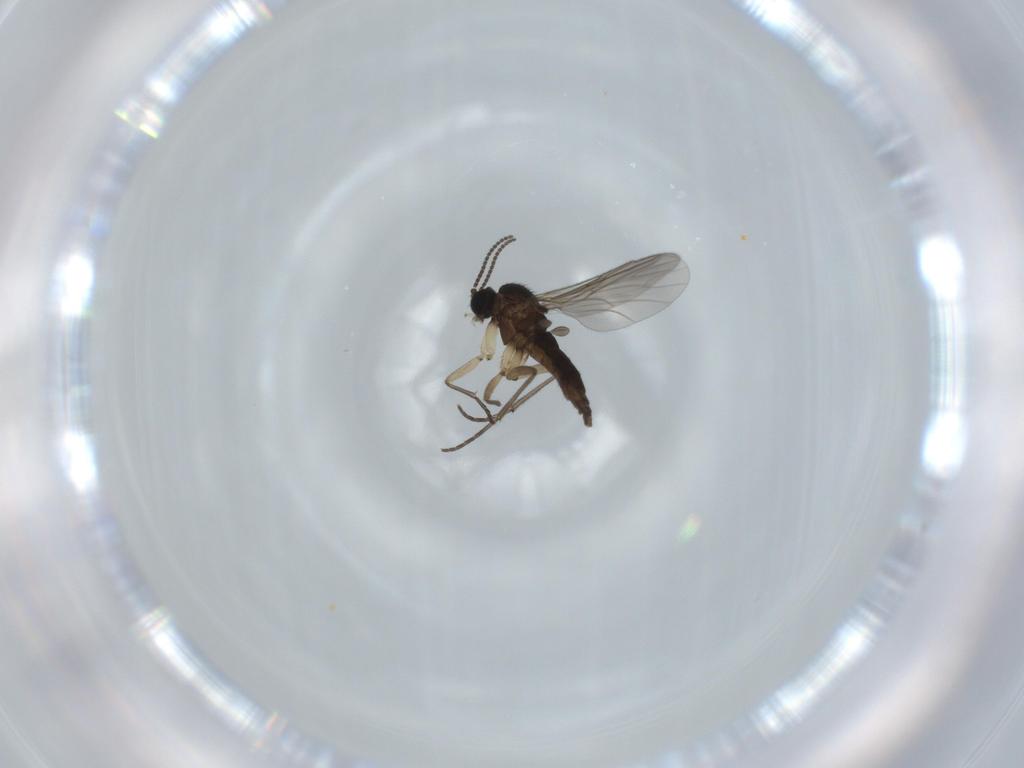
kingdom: Animalia
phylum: Arthropoda
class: Insecta
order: Diptera
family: Sciaridae
